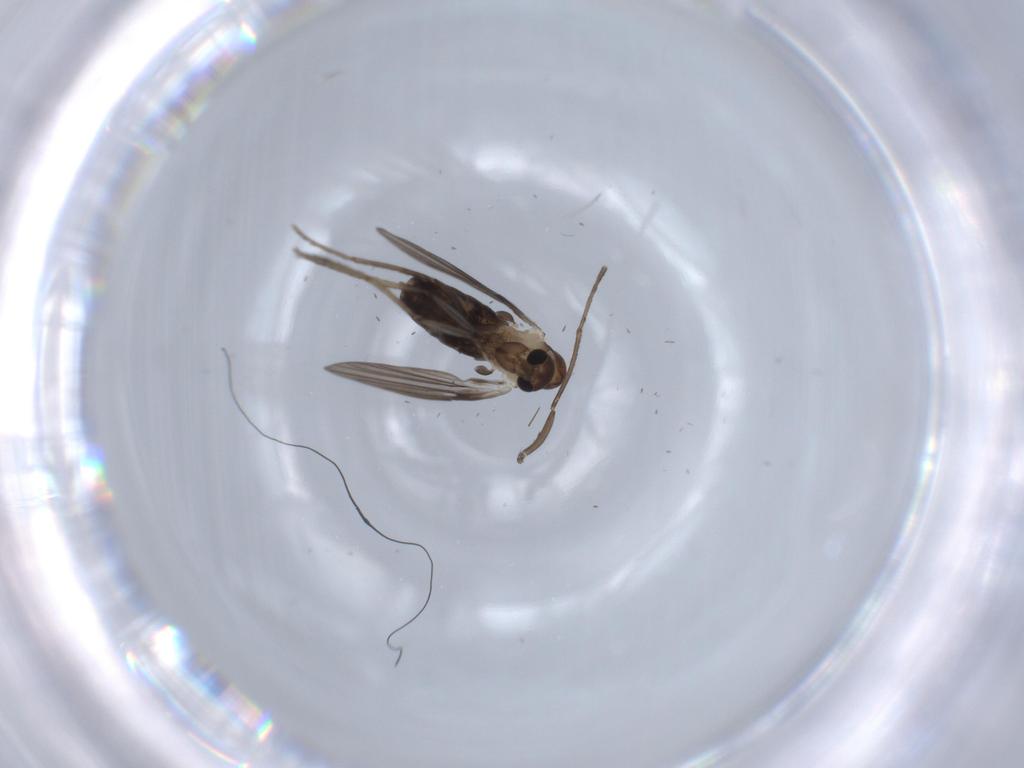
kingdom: Animalia
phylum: Arthropoda
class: Insecta
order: Diptera
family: Psychodidae
